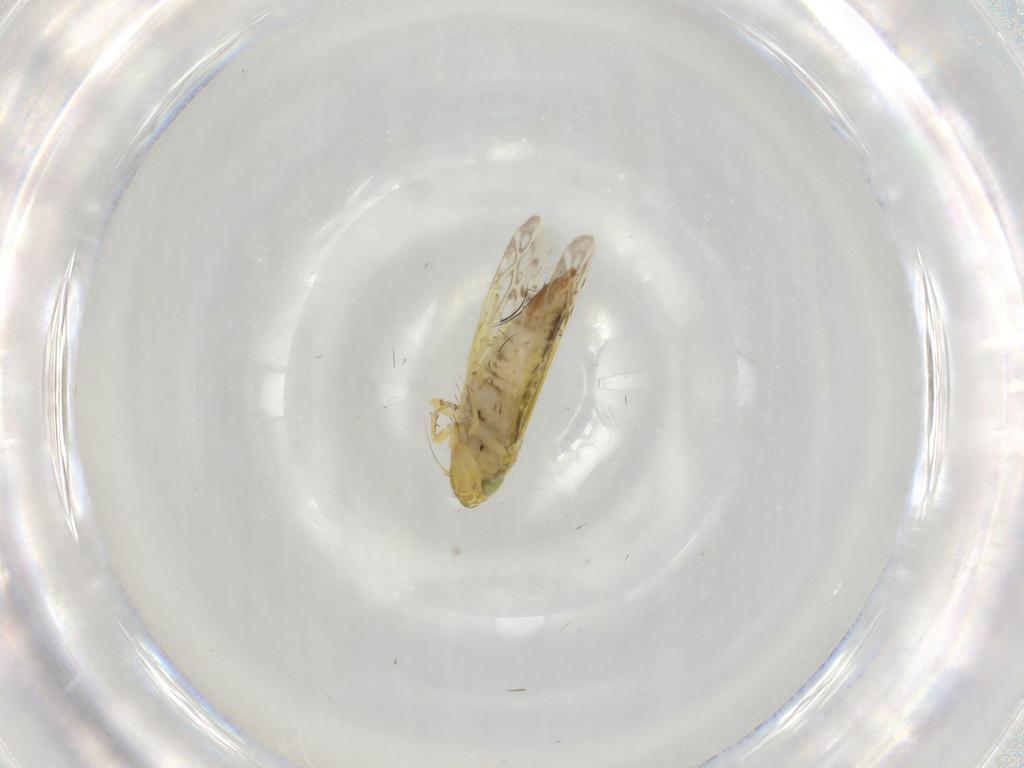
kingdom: Animalia
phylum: Arthropoda
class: Insecta
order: Hemiptera
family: Cicadellidae
